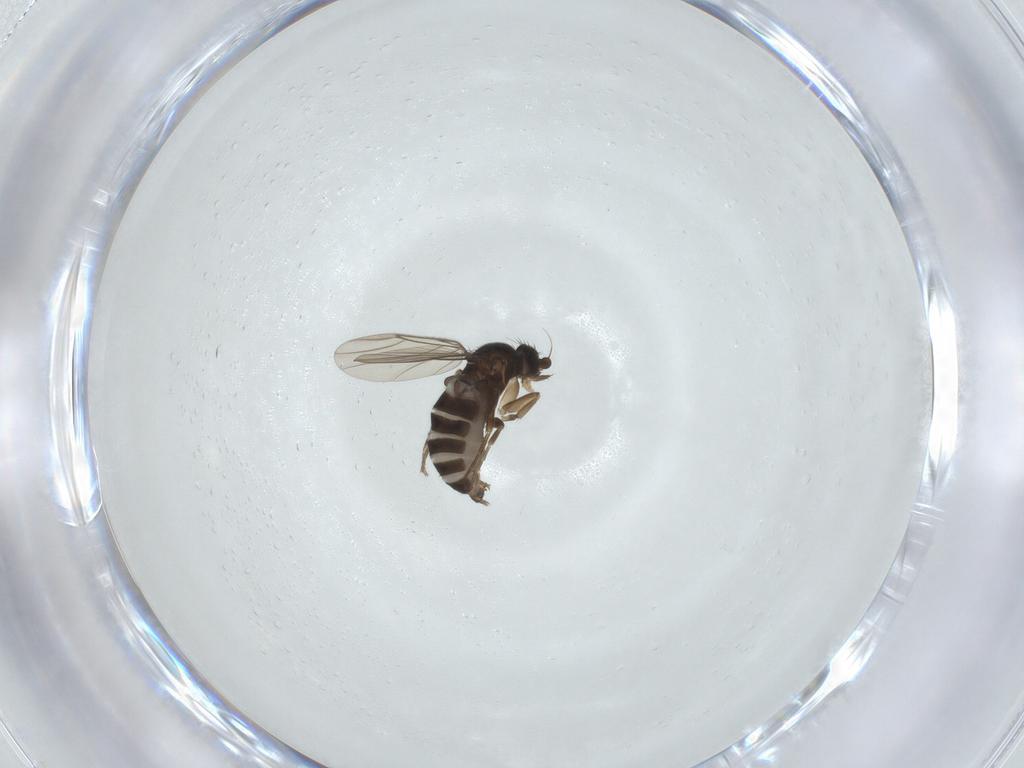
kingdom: Animalia
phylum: Arthropoda
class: Insecta
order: Diptera
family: Phoridae
